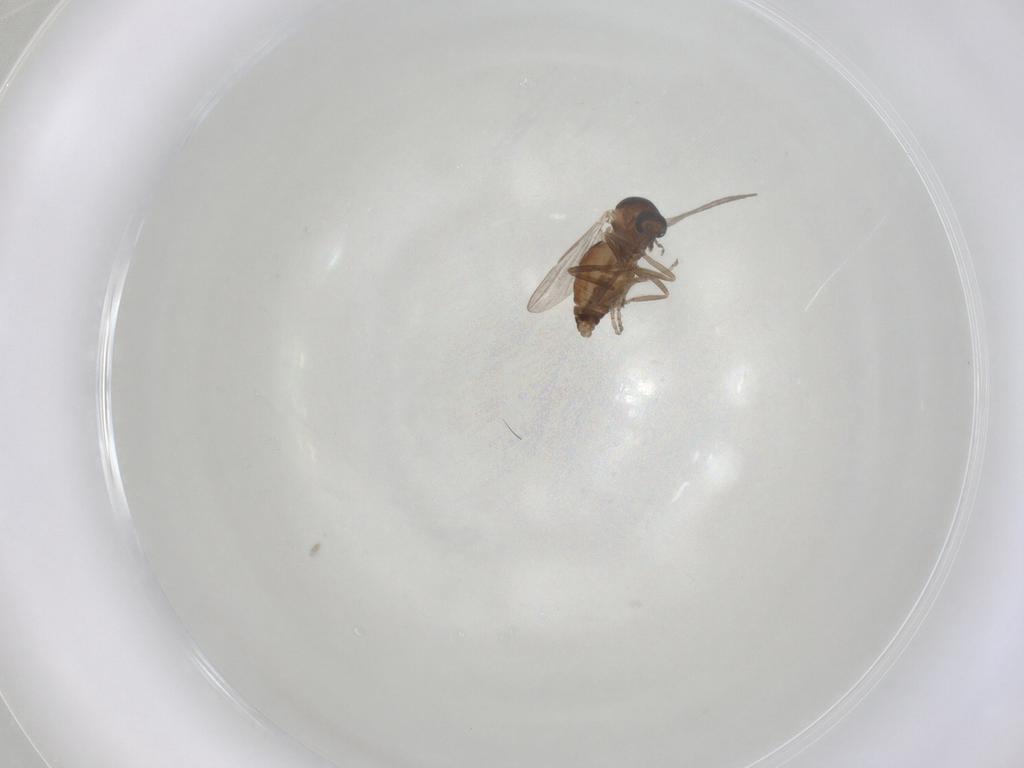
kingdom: Animalia
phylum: Arthropoda
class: Insecta
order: Diptera
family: Ceratopogonidae
